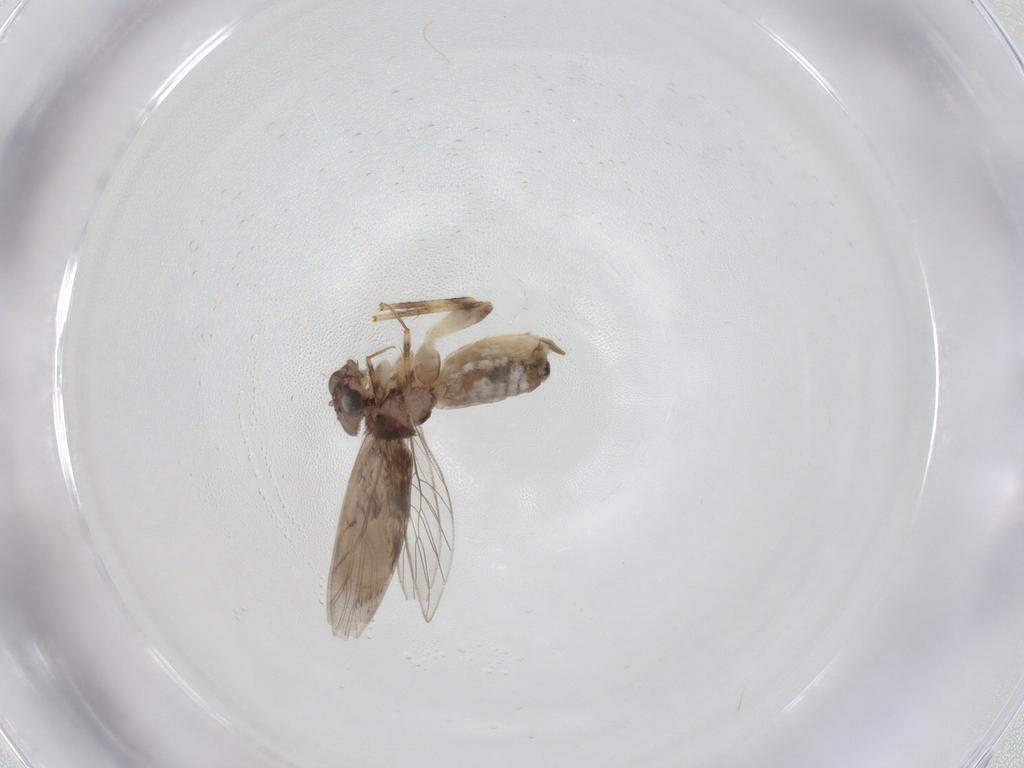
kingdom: Animalia
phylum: Arthropoda
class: Insecta
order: Psocodea
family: Lepidopsocidae
